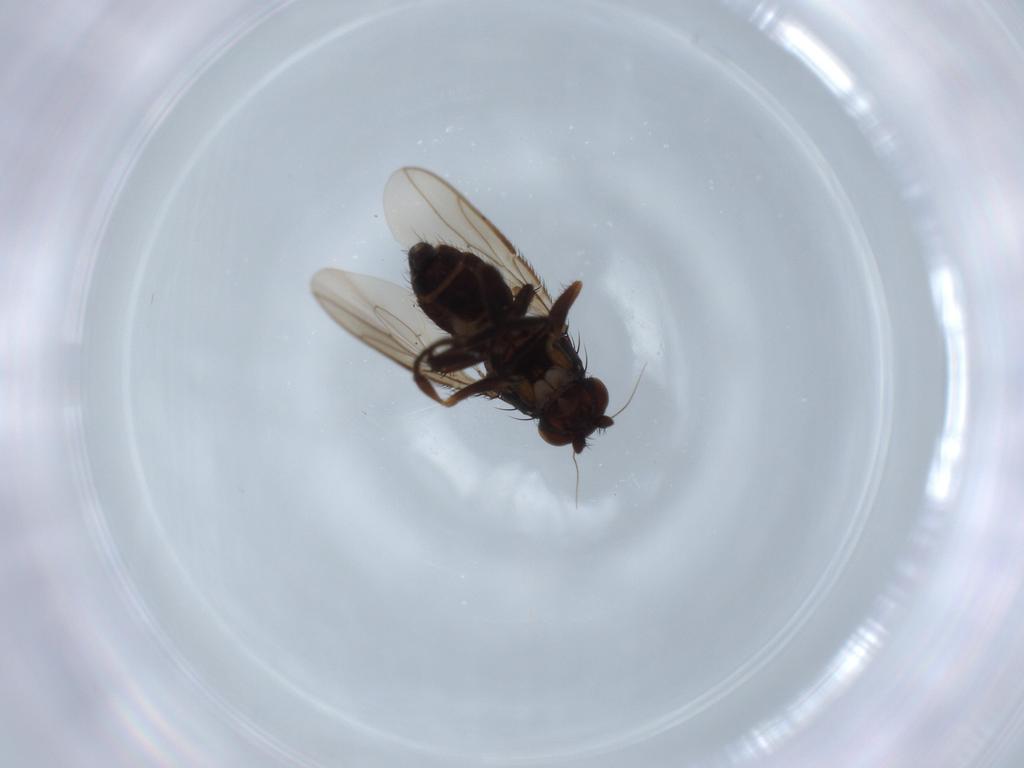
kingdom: Animalia
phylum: Arthropoda
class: Insecta
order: Diptera
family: Sphaeroceridae
